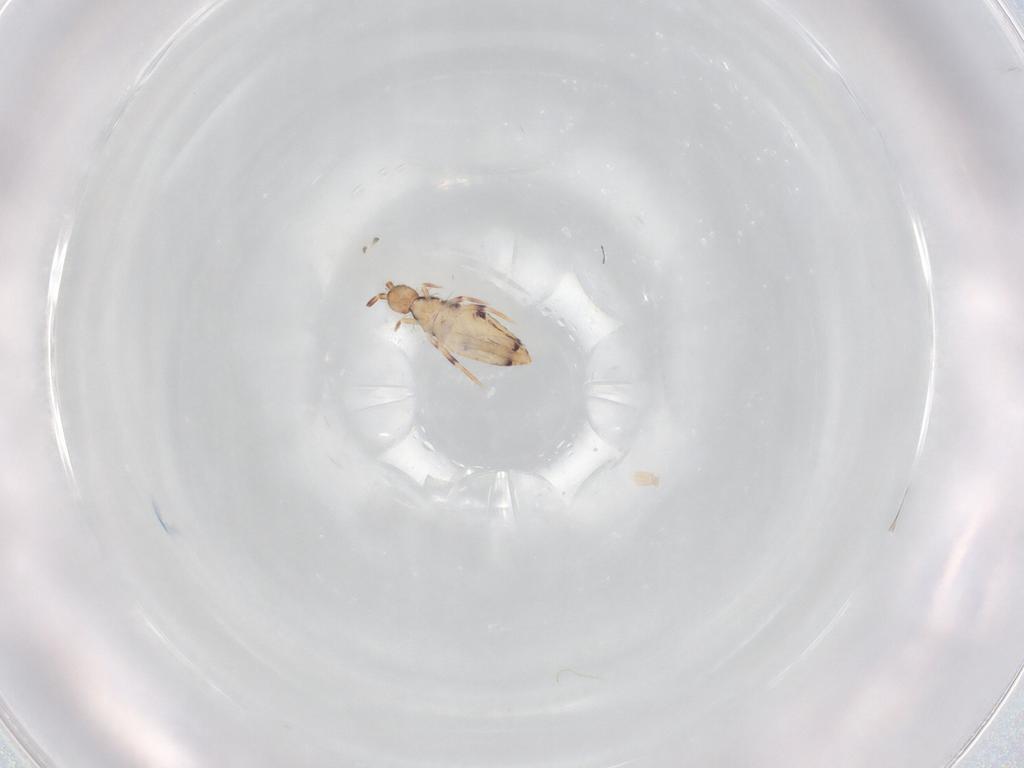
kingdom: Animalia
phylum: Arthropoda
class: Collembola
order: Entomobryomorpha
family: Entomobryidae
